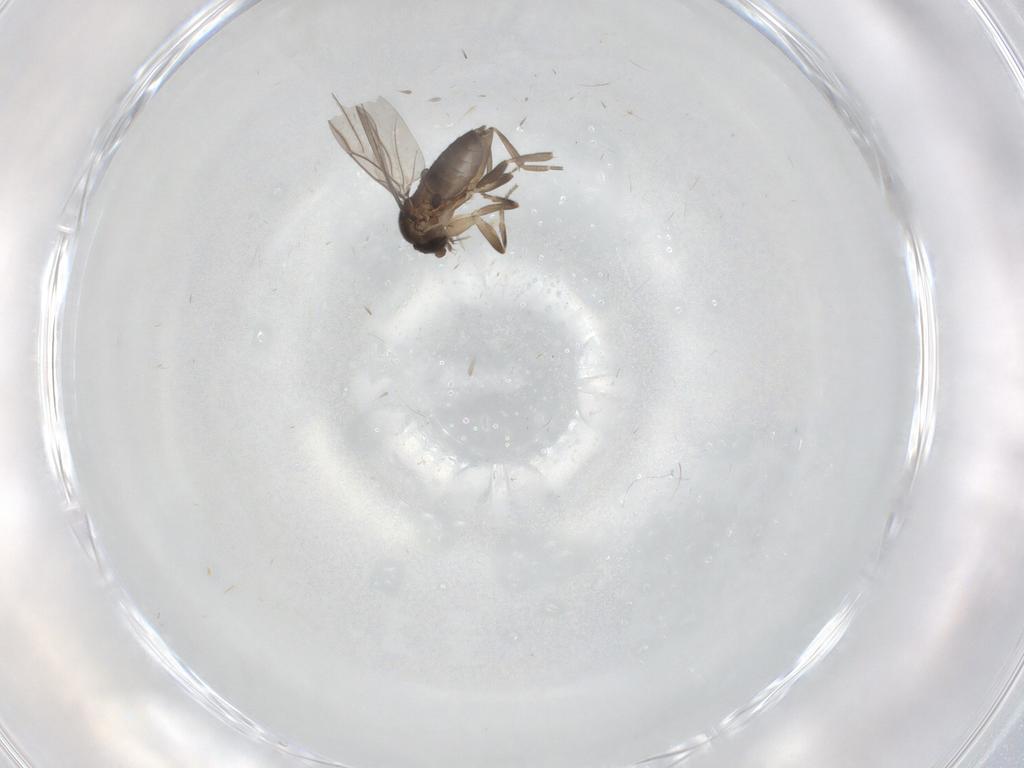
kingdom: Animalia
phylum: Arthropoda
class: Insecta
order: Diptera
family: Phoridae
